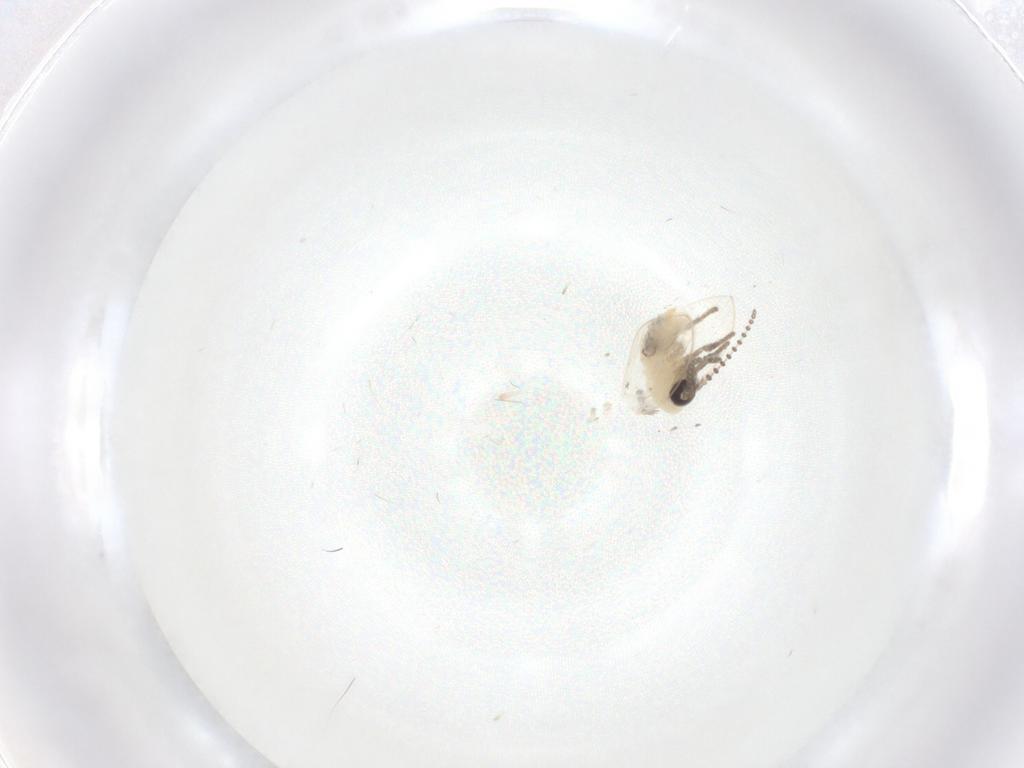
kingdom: Animalia
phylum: Arthropoda
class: Insecta
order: Diptera
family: Psychodidae
